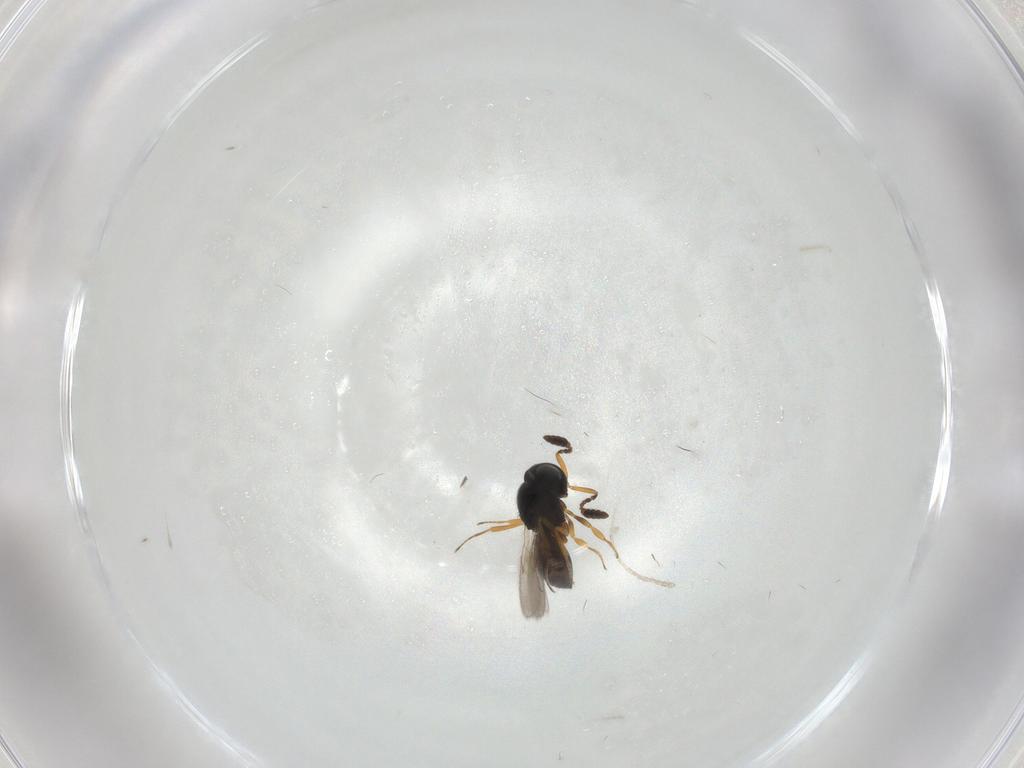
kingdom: Animalia
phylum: Arthropoda
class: Insecta
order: Hymenoptera
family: Scelionidae
